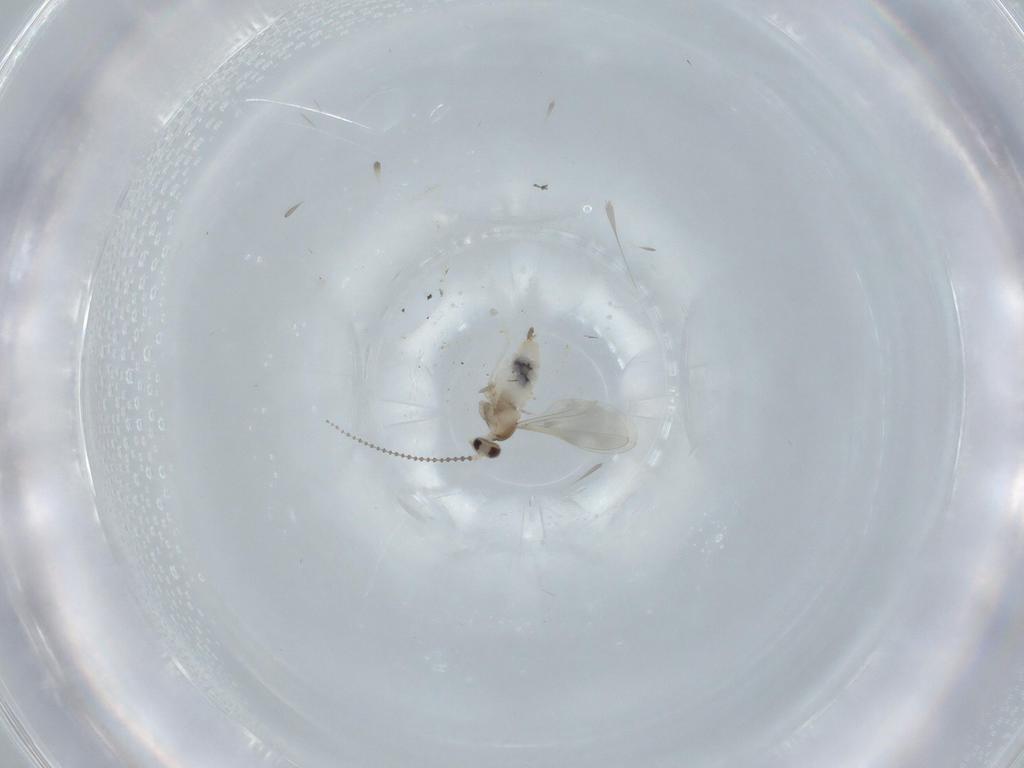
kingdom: Animalia
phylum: Arthropoda
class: Insecta
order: Diptera
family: Cecidomyiidae
